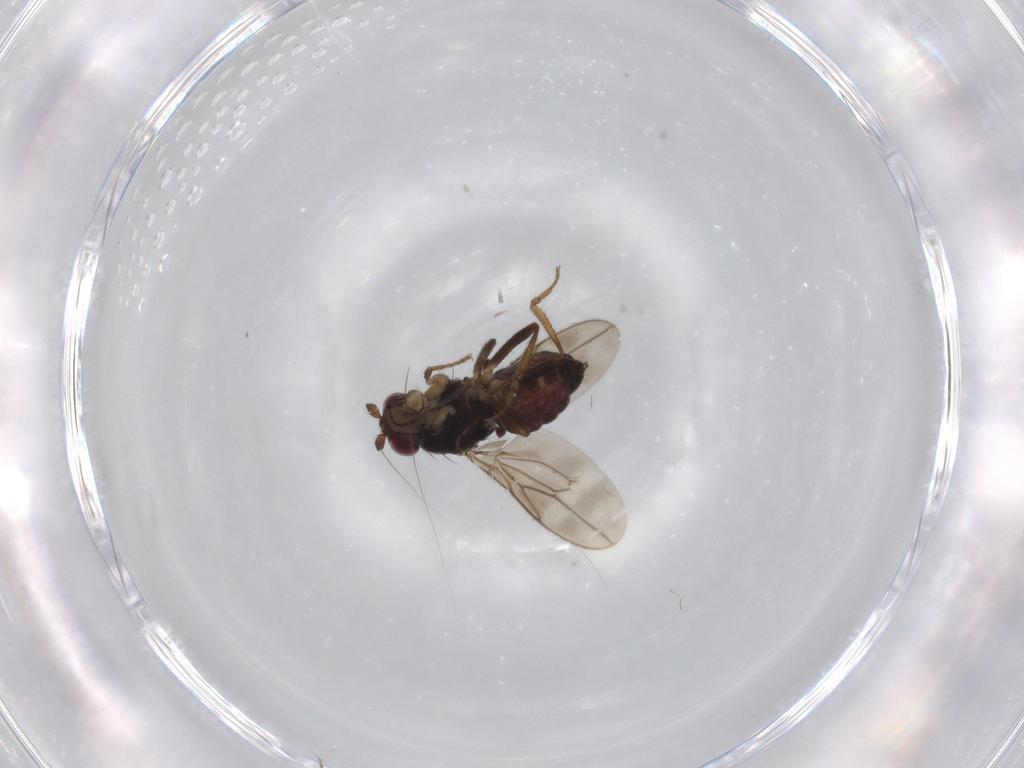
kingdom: Animalia
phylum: Arthropoda
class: Insecta
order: Diptera
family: Sphaeroceridae
